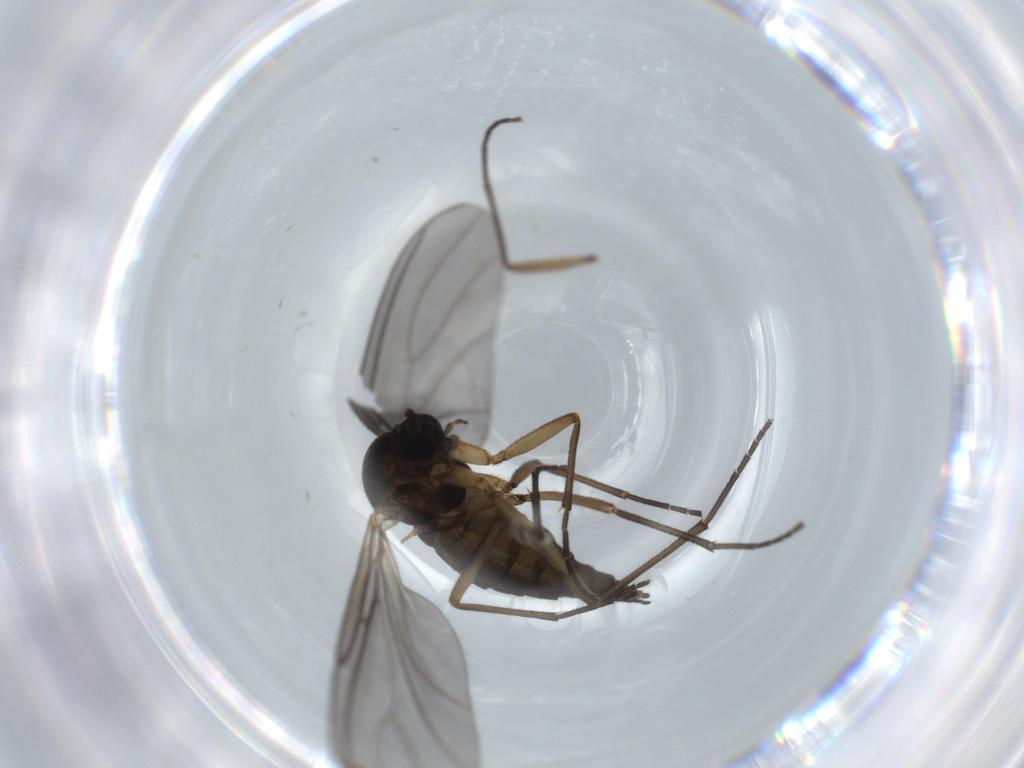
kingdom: Animalia
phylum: Arthropoda
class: Insecta
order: Diptera
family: Sciaridae
